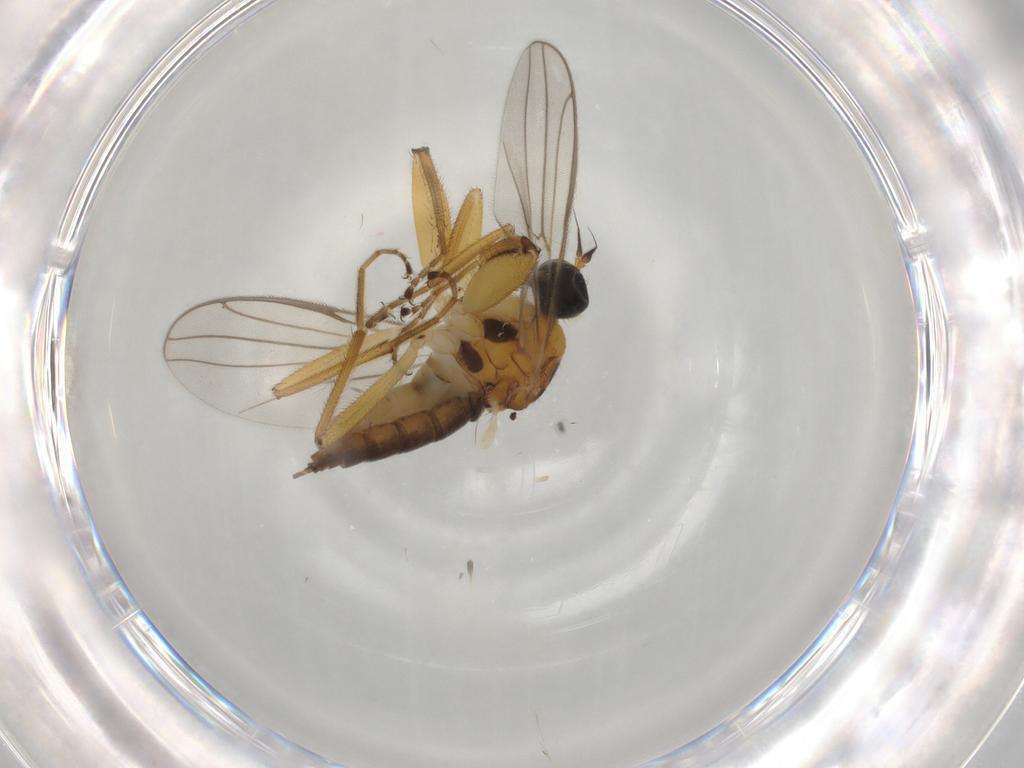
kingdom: Animalia
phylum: Arthropoda
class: Insecta
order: Diptera
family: Hybotidae
